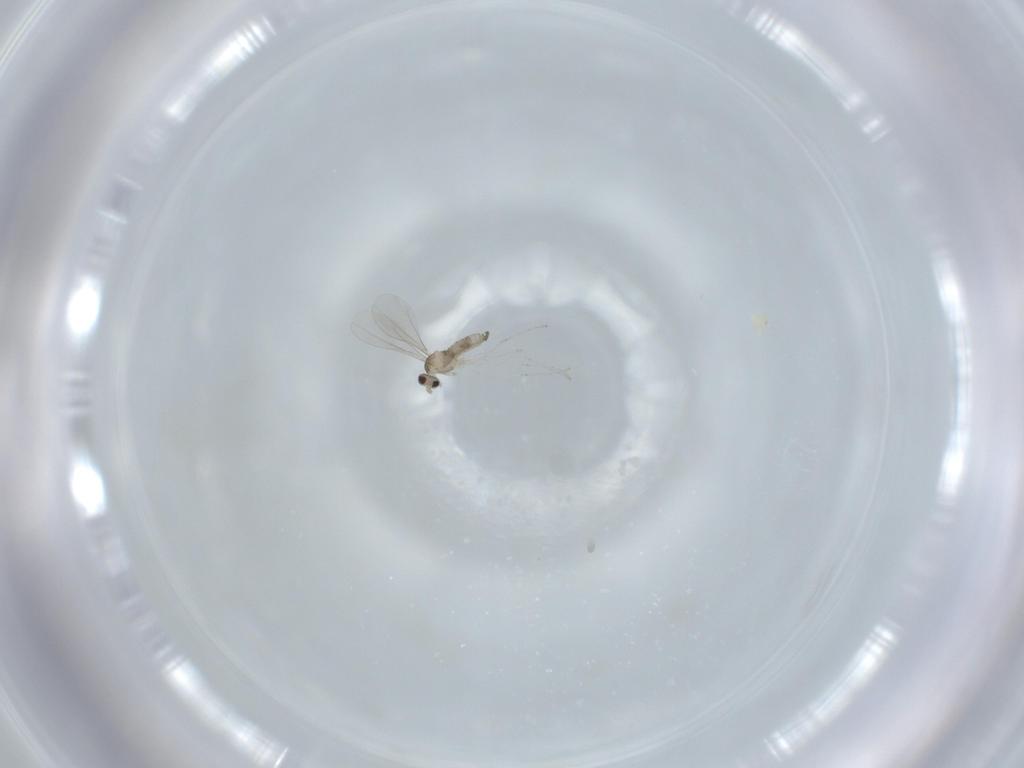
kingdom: Animalia
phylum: Arthropoda
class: Insecta
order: Diptera
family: Cecidomyiidae
